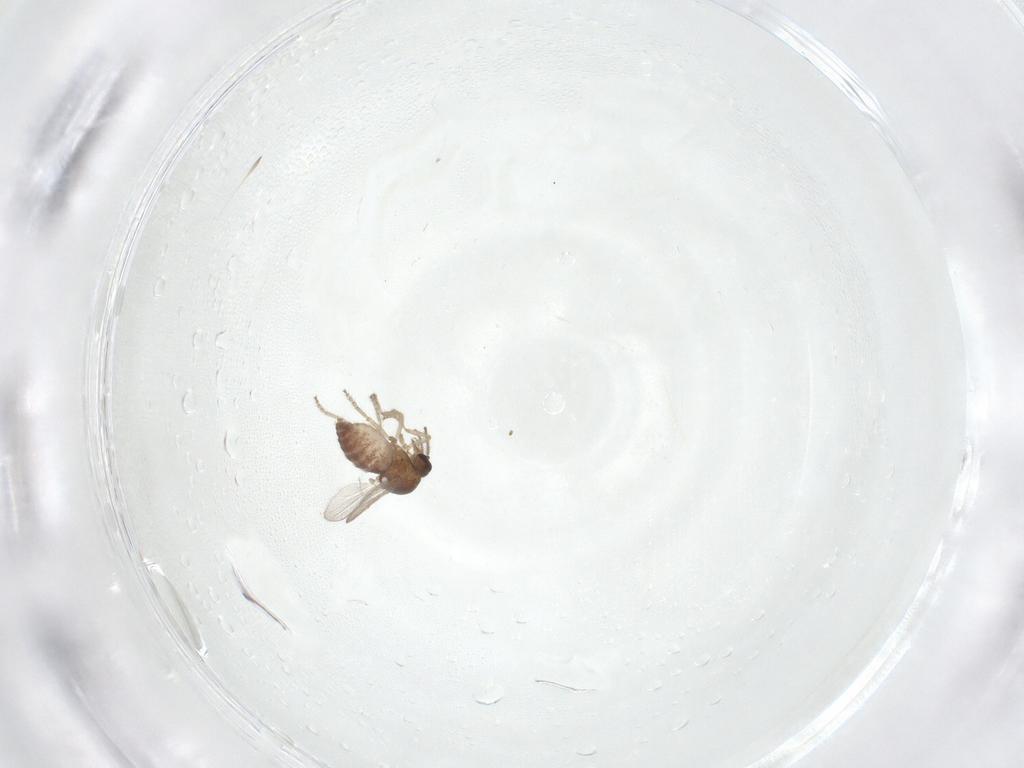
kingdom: Animalia
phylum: Arthropoda
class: Insecta
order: Diptera
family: Ceratopogonidae
